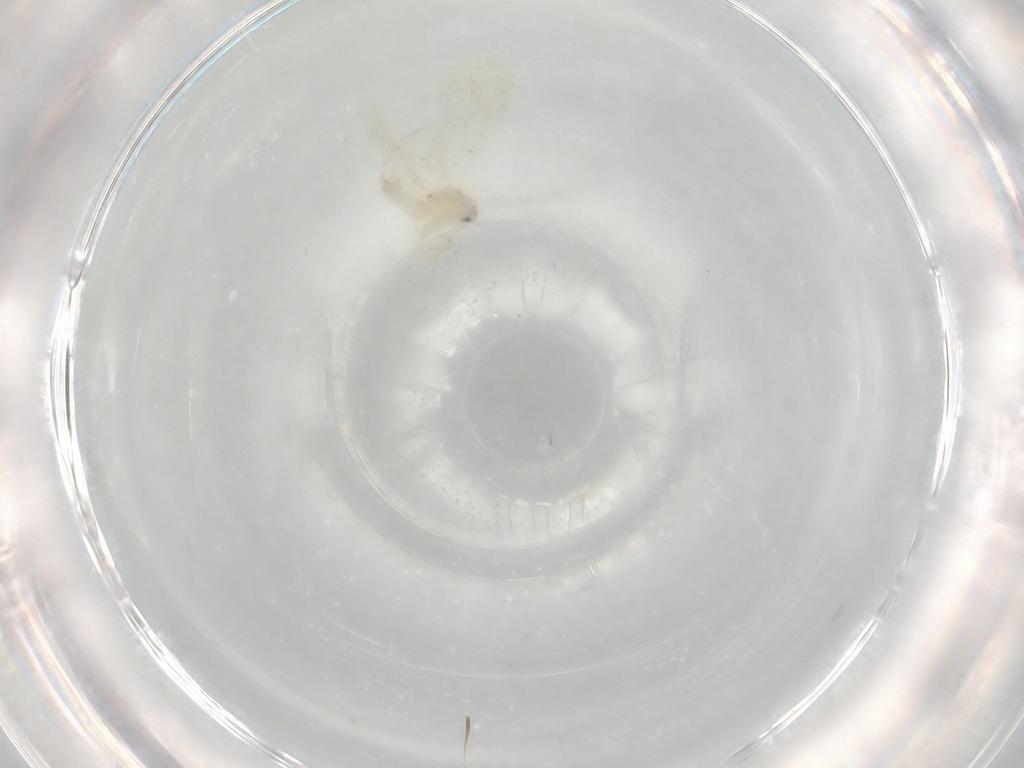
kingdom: Animalia
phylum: Arthropoda
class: Insecta
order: Hemiptera
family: Aleyrodidae
